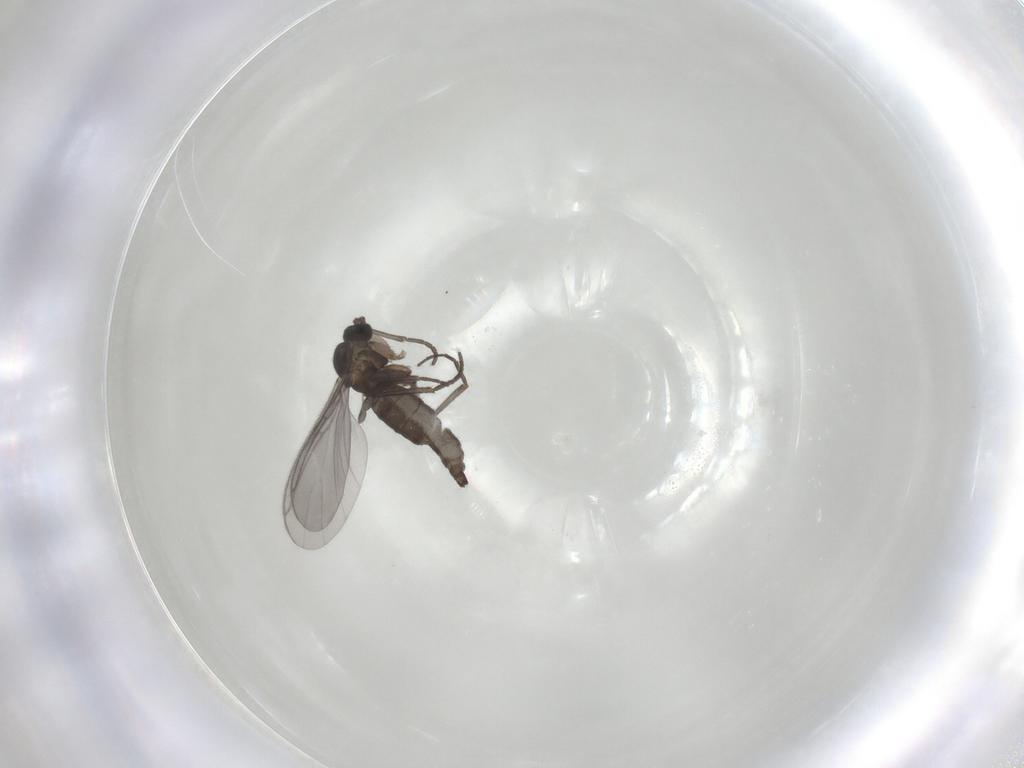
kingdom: Animalia
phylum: Arthropoda
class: Insecta
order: Diptera
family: Phoridae
